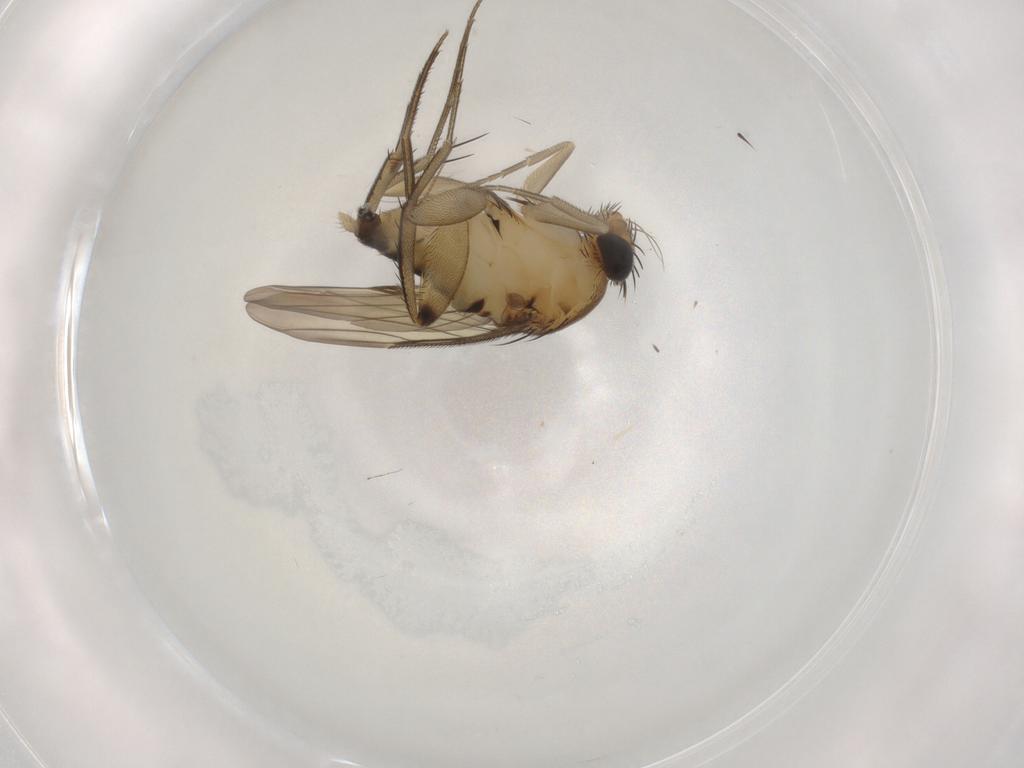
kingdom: Animalia
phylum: Arthropoda
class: Insecta
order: Diptera
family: Phoridae
